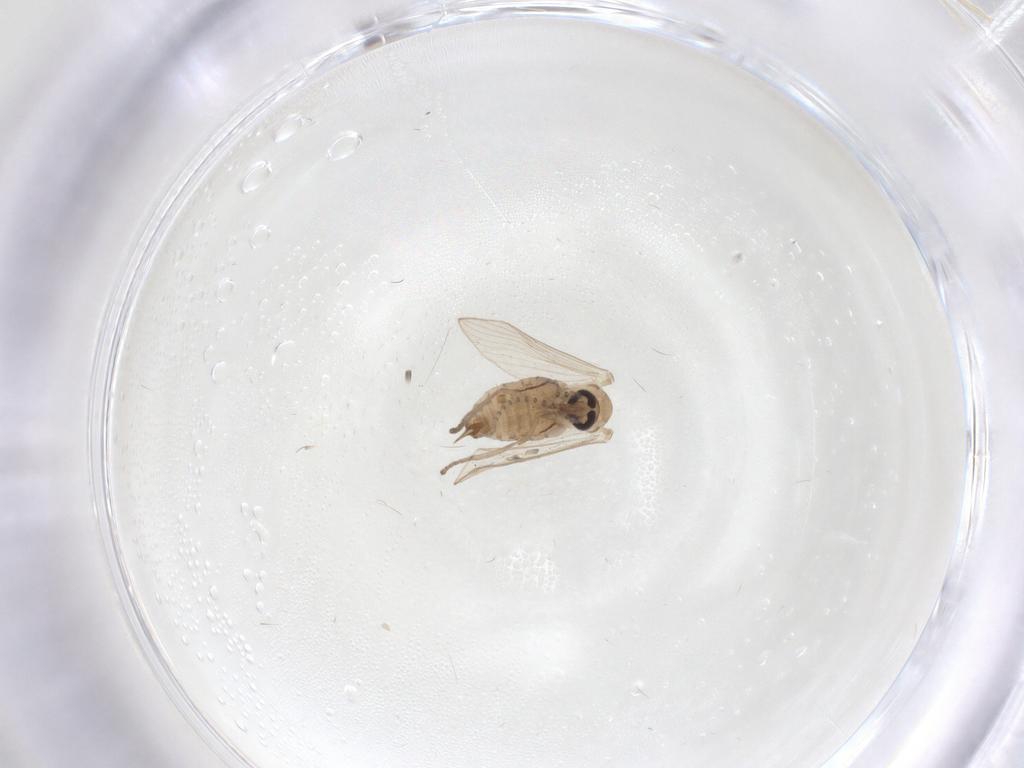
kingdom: Animalia
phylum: Arthropoda
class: Insecta
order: Diptera
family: Psychodidae
